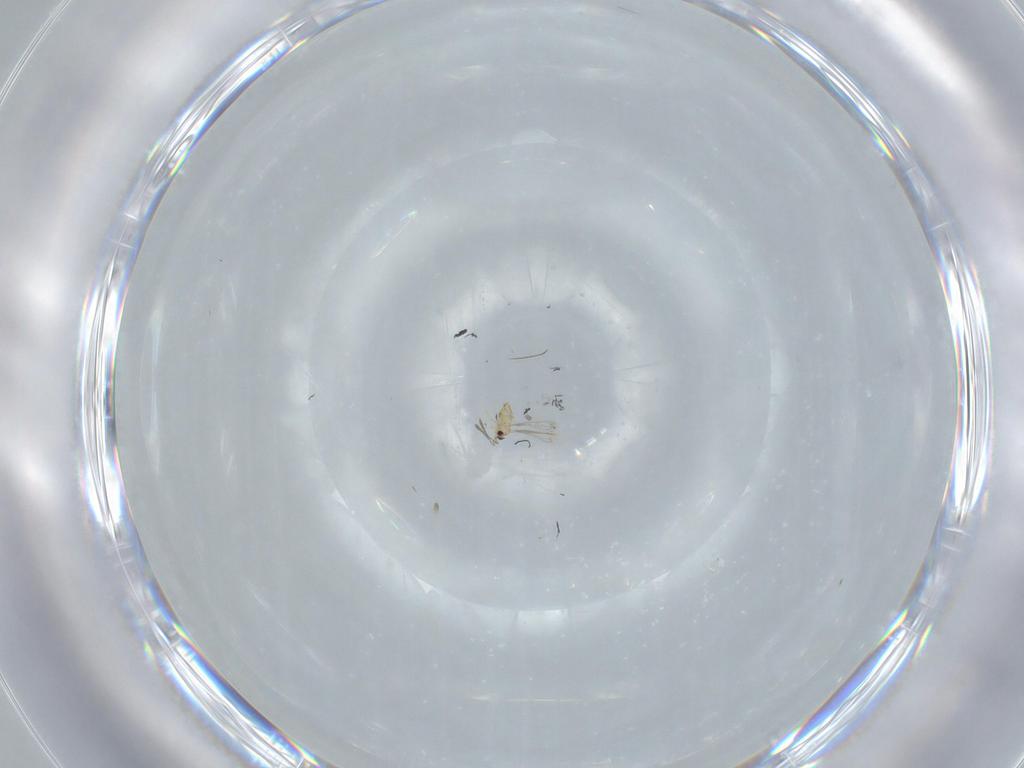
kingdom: Animalia
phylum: Arthropoda
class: Insecta
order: Hymenoptera
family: Mymaridae
